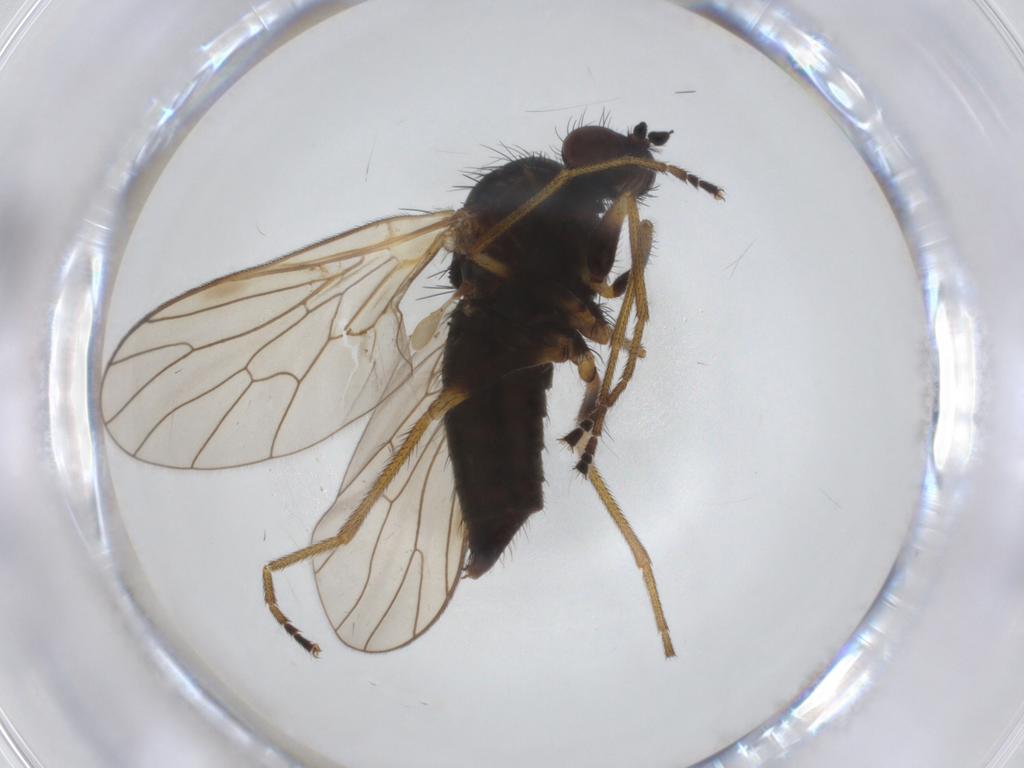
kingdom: Animalia
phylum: Arthropoda
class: Insecta
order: Diptera
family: Brachystomatidae
